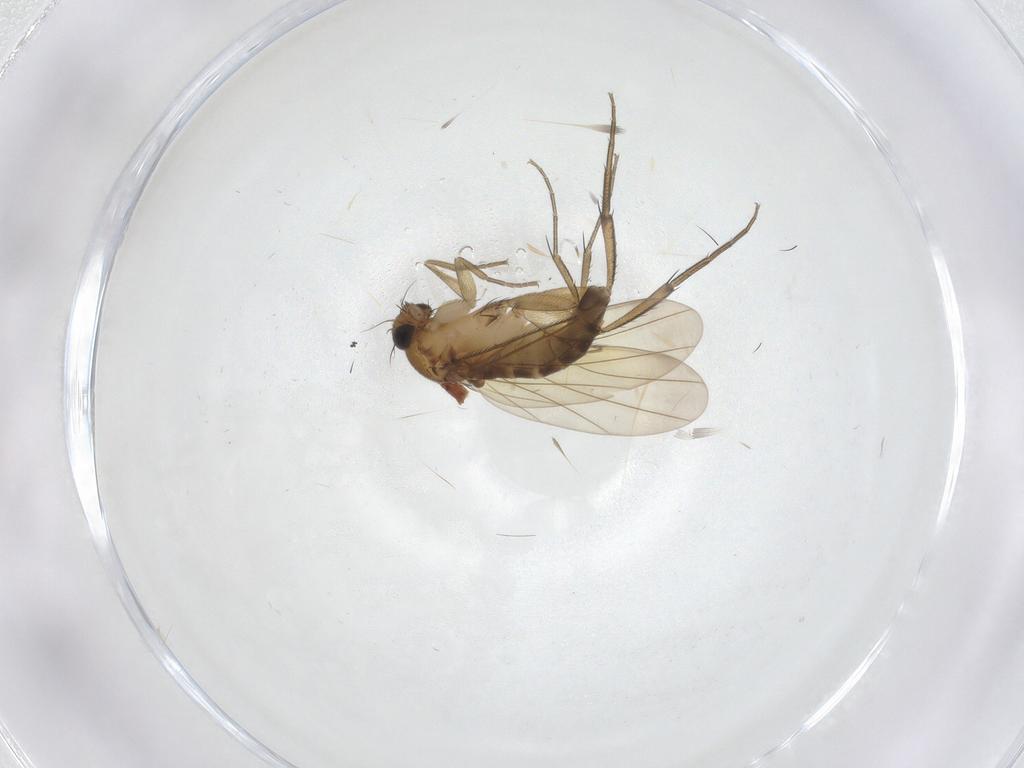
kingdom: Animalia
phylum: Arthropoda
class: Insecta
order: Diptera
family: Phoridae
